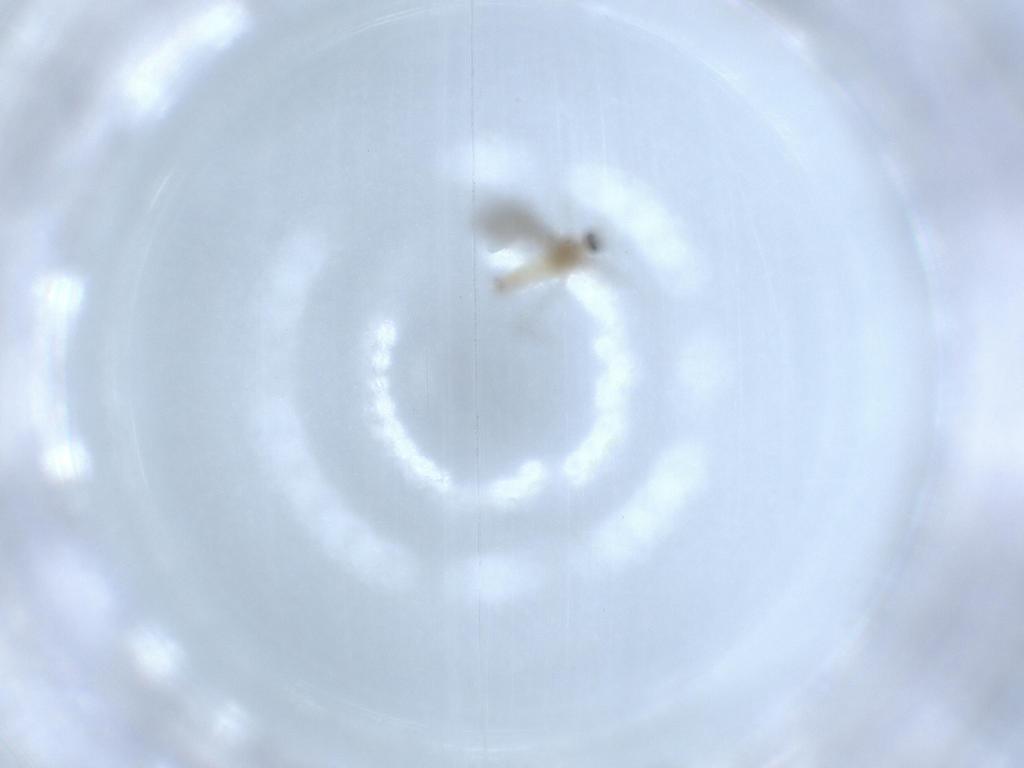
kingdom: Animalia
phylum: Arthropoda
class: Insecta
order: Diptera
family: Cecidomyiidae
